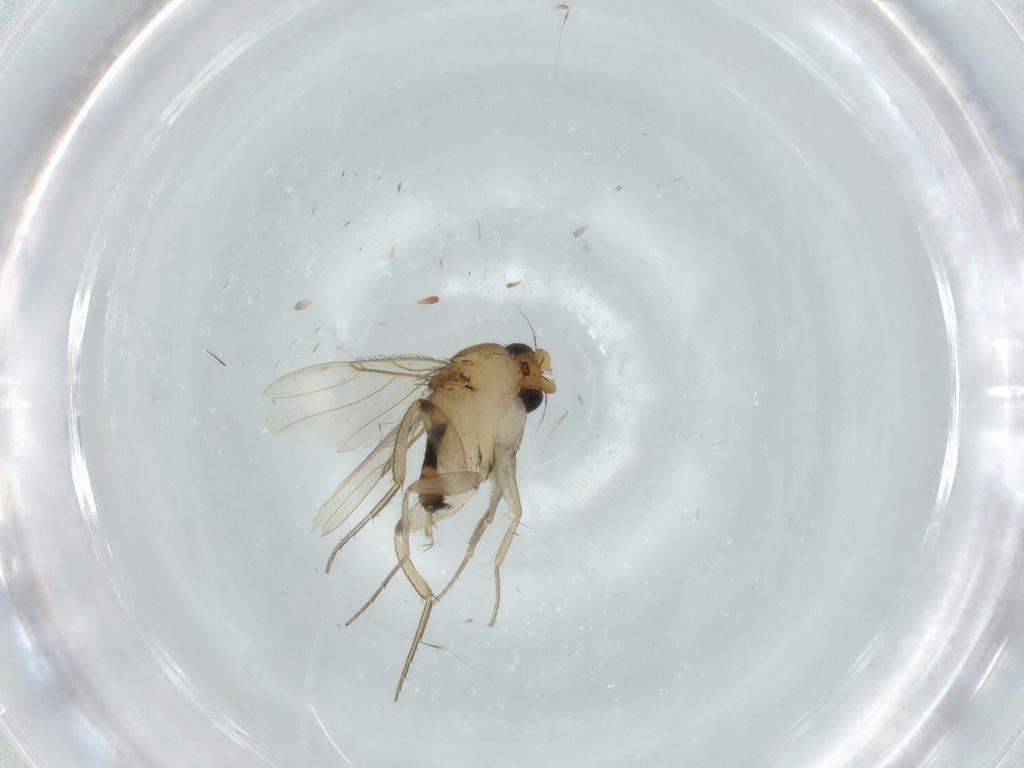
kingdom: Animalia
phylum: Arthropoda
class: Insecta
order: Diptera
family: Phoridae
